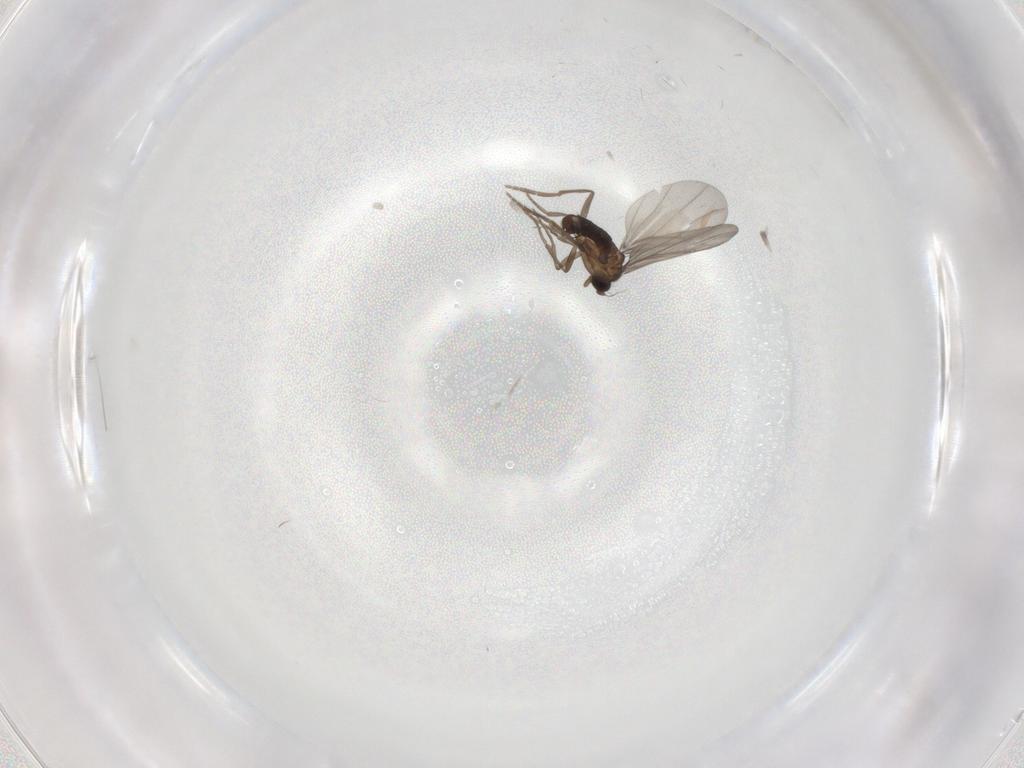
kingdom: Animalia
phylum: Arthropoda
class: Insecta
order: Diptera
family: Phoridae
